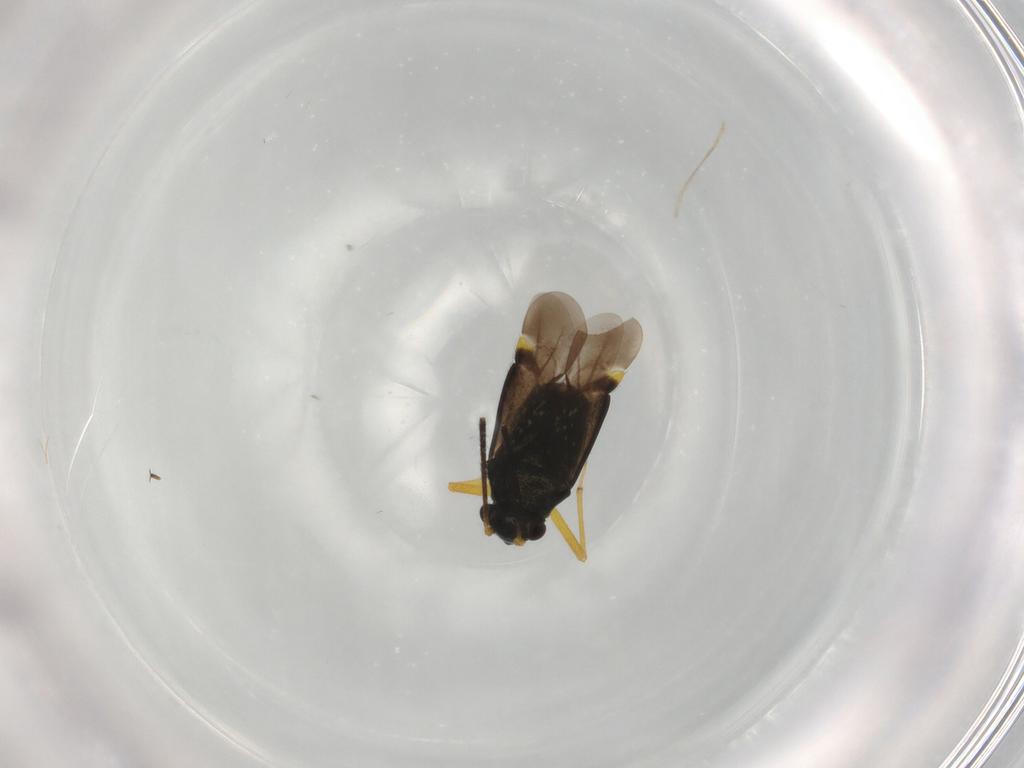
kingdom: Animalia
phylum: Arthropoda
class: Insecta
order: Hemiptera
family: Miridae
